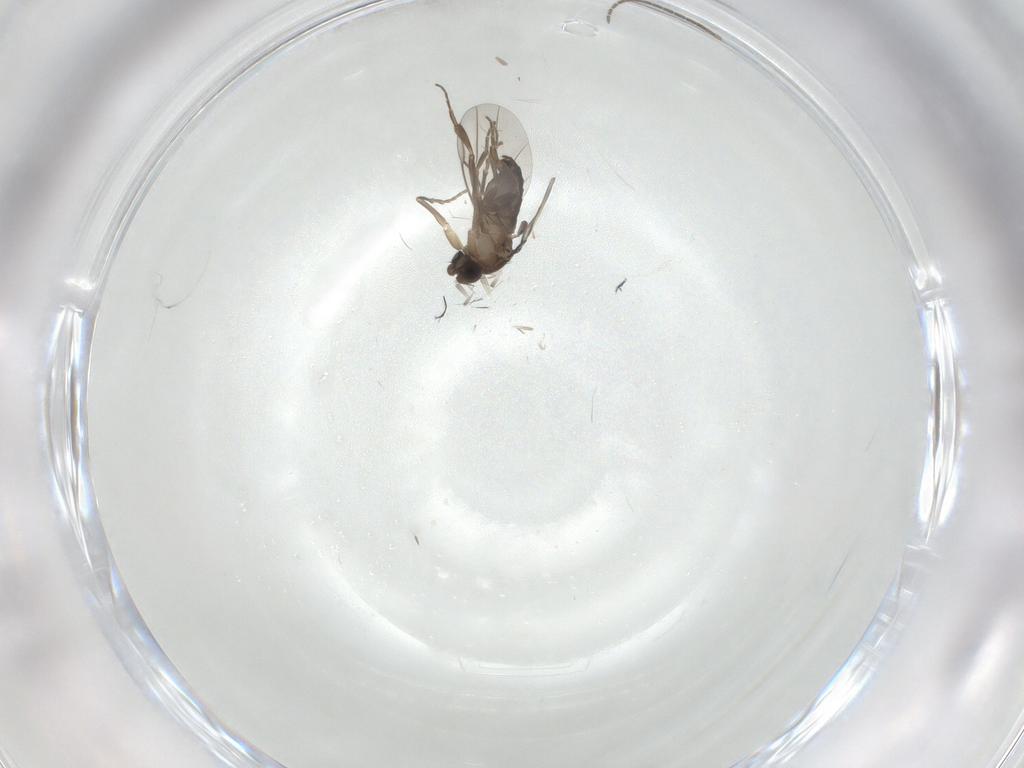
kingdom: Animalia
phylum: Arthropoda
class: Insecta
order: Diptera
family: Phoridae
